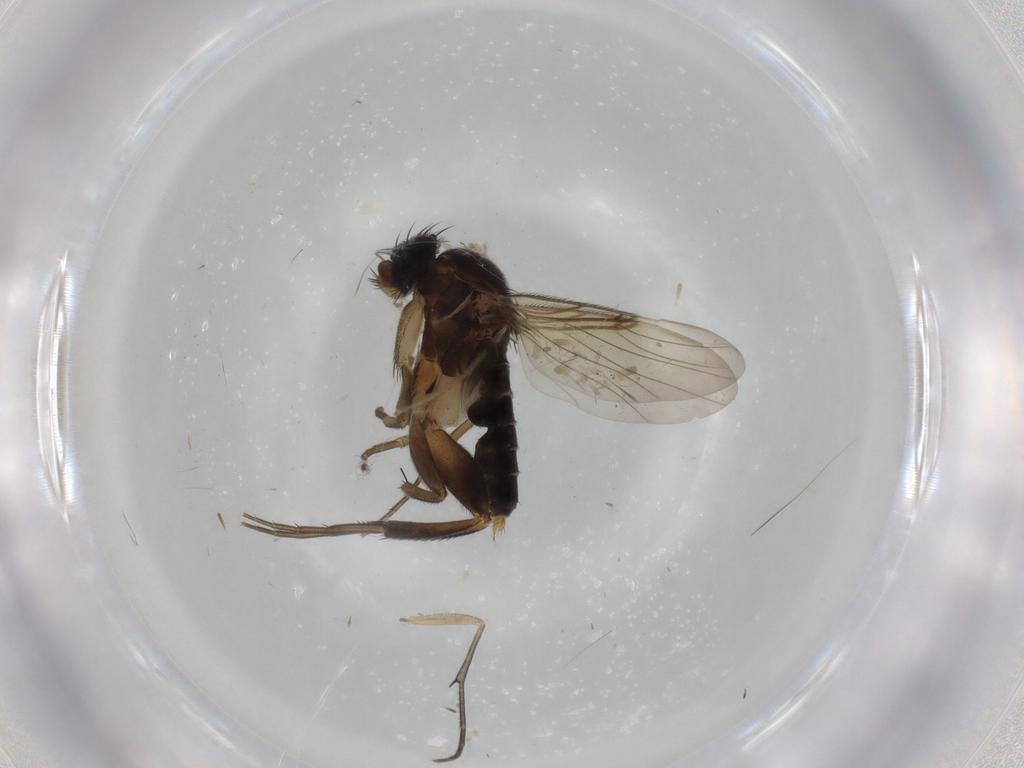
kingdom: Animalia
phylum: Arthropoda
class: Insecta
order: Diptera
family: Phoridae
